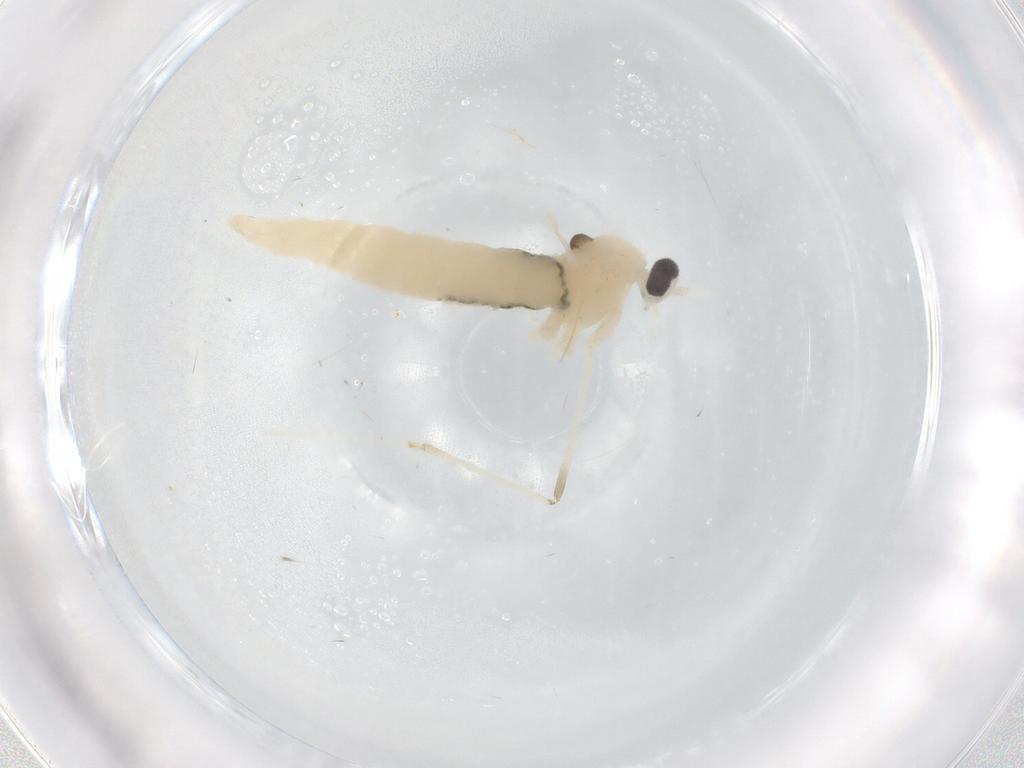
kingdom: Animalia
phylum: Arthropoda
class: Insecta
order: Diptera
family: Cecidomyiidae
